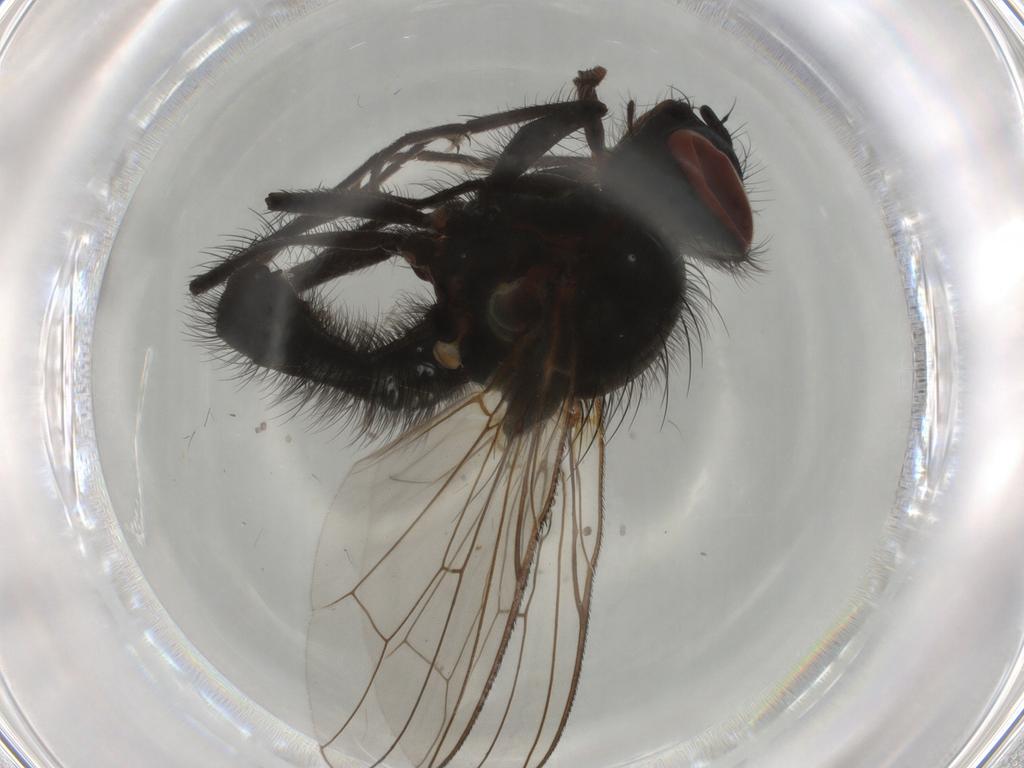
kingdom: Animalia
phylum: Arthropoda
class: Insecta
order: Diptera
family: Anthomyiidae
